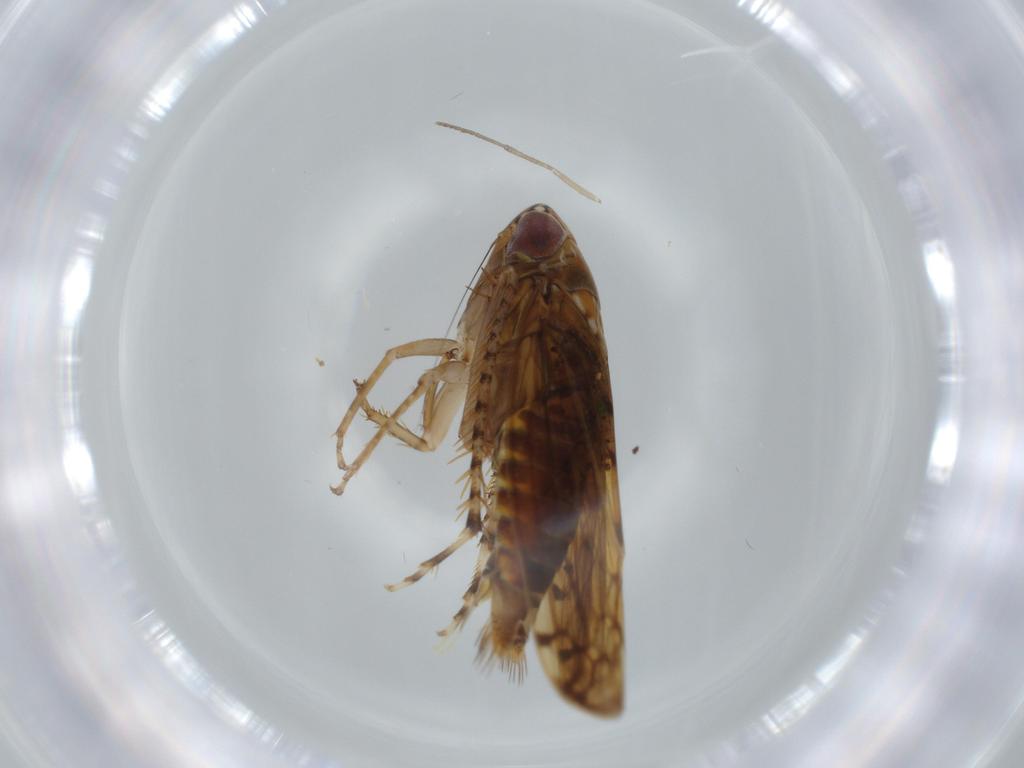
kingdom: Animalia
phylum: Arthropoda
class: Insecta
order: Hemiptera
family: Cicadellidae
